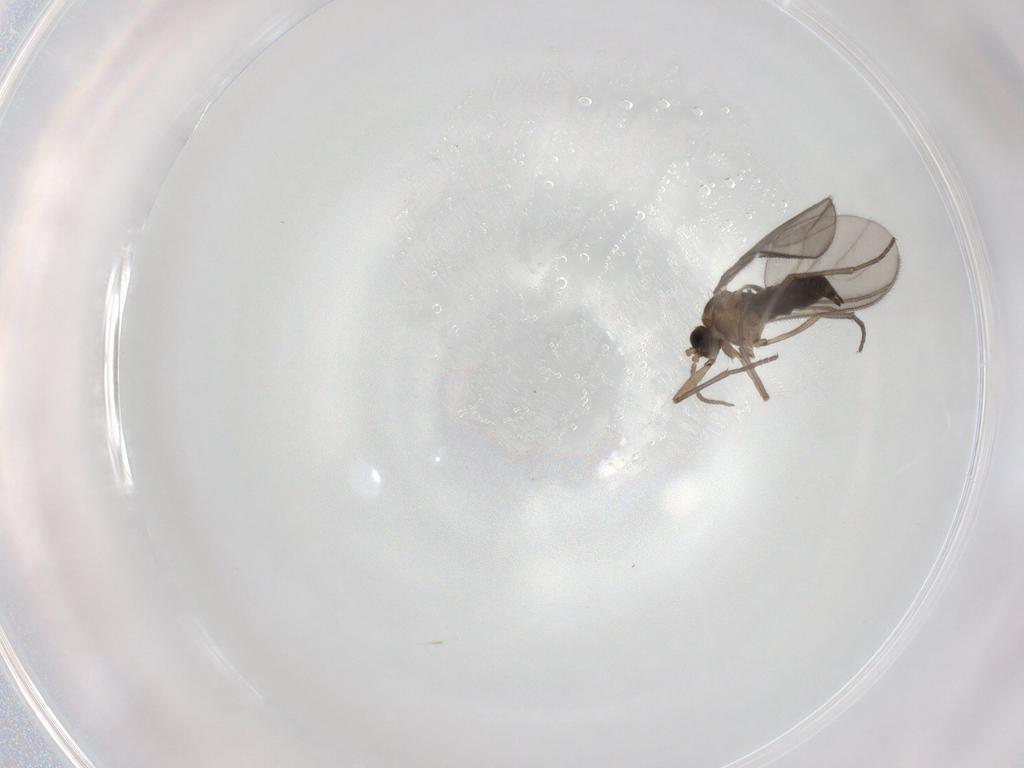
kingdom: Animalia
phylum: Arthropoda
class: Insecta
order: Diptera
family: Sciaridae
